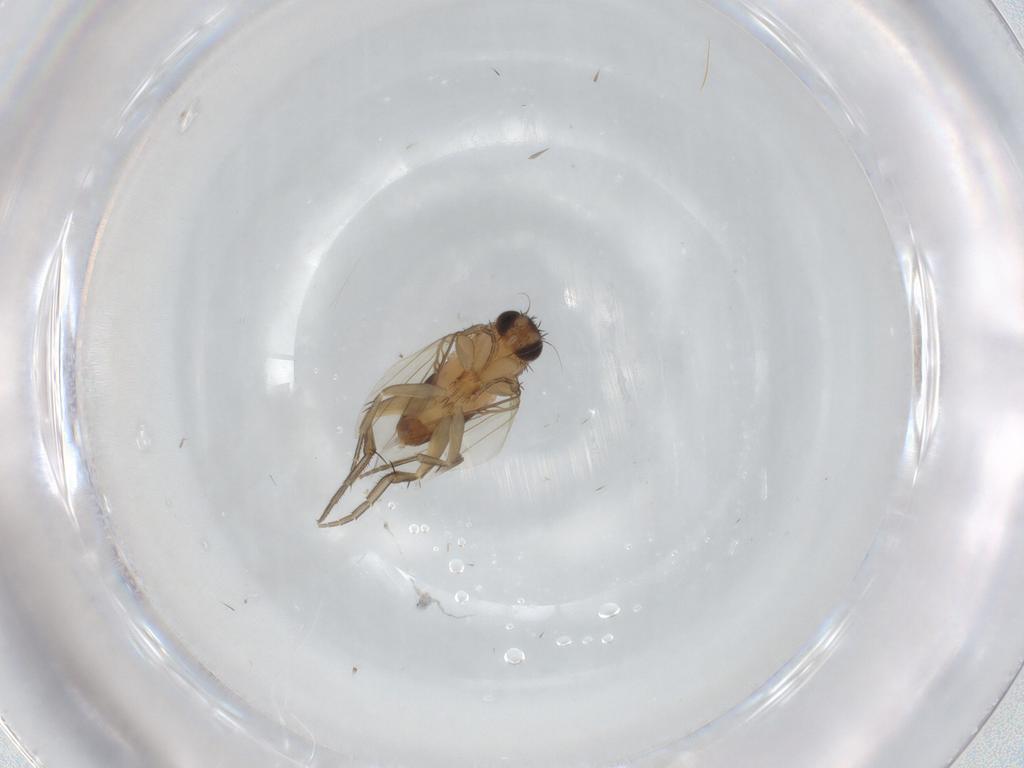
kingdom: Animalia
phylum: Arthropoda
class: Insecta
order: Diptera
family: Phoridae
